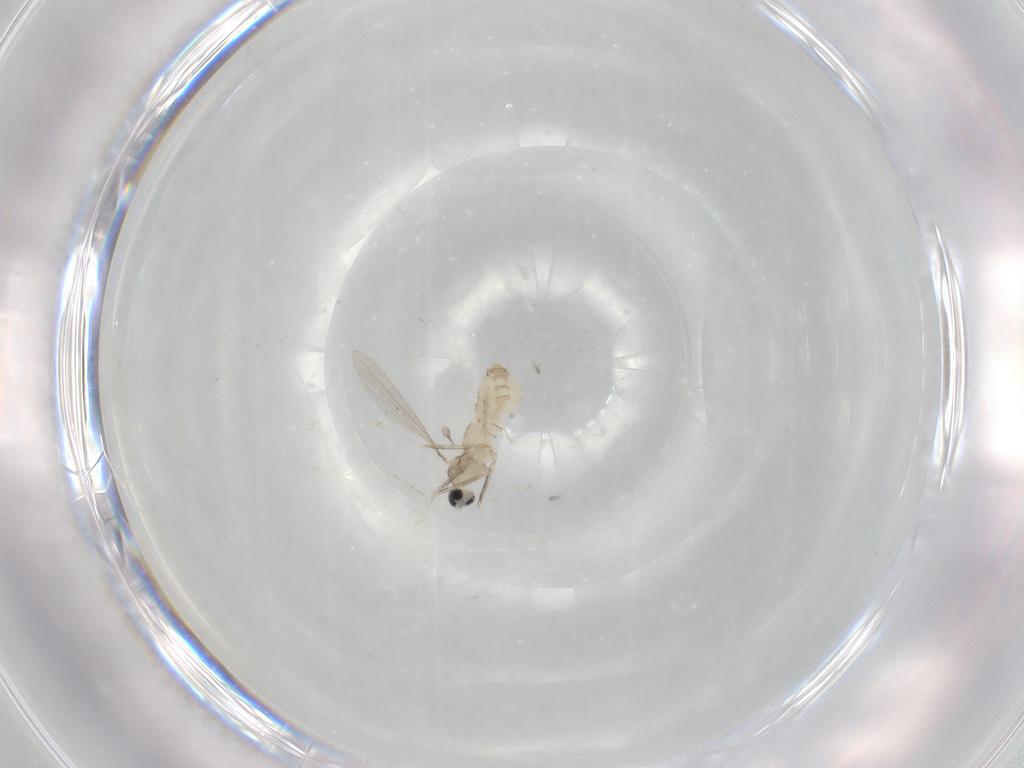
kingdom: Animalia
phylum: Arthropoda
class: Insecta
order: Diptera
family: Cecidomyiidae
